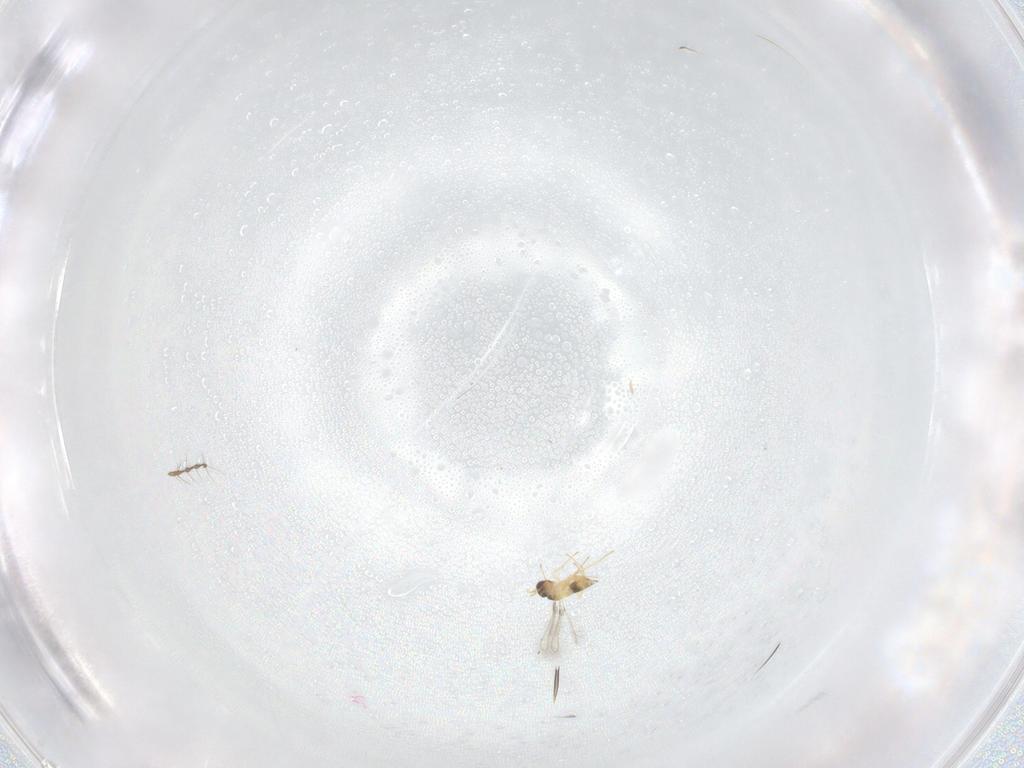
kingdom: Animalia
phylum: Arthropoda
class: Insecta
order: Hymenoptera
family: Mymaridae
